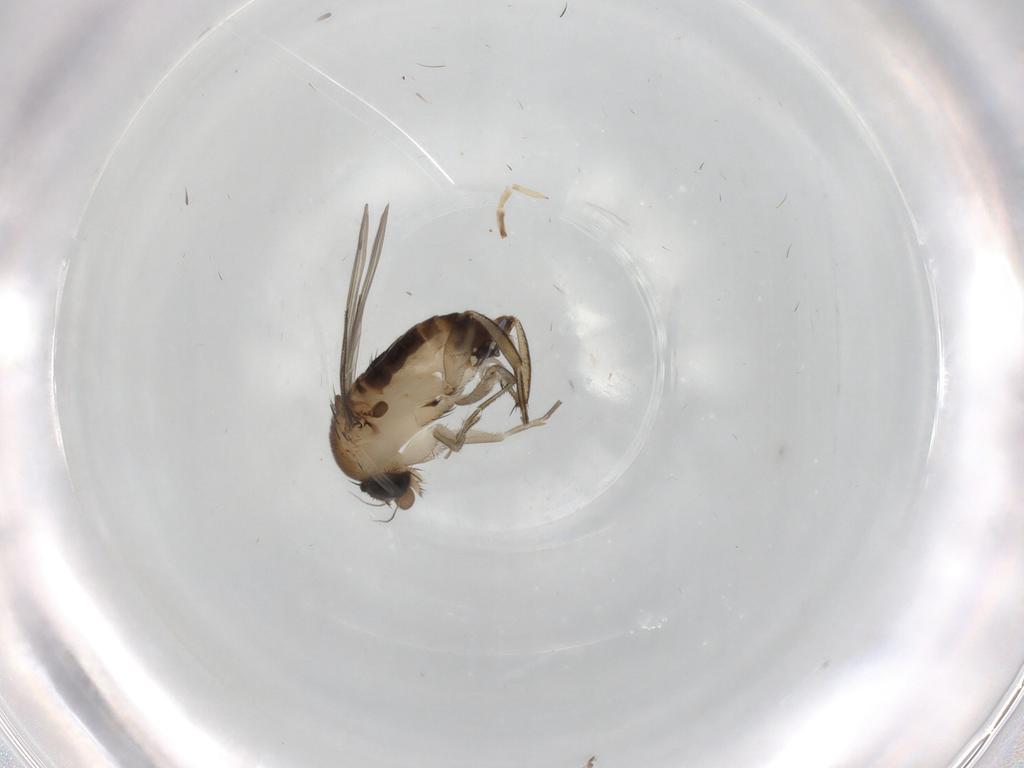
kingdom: Animalia
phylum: Arthropoda
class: Insecta
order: Diptera
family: Phoridae
